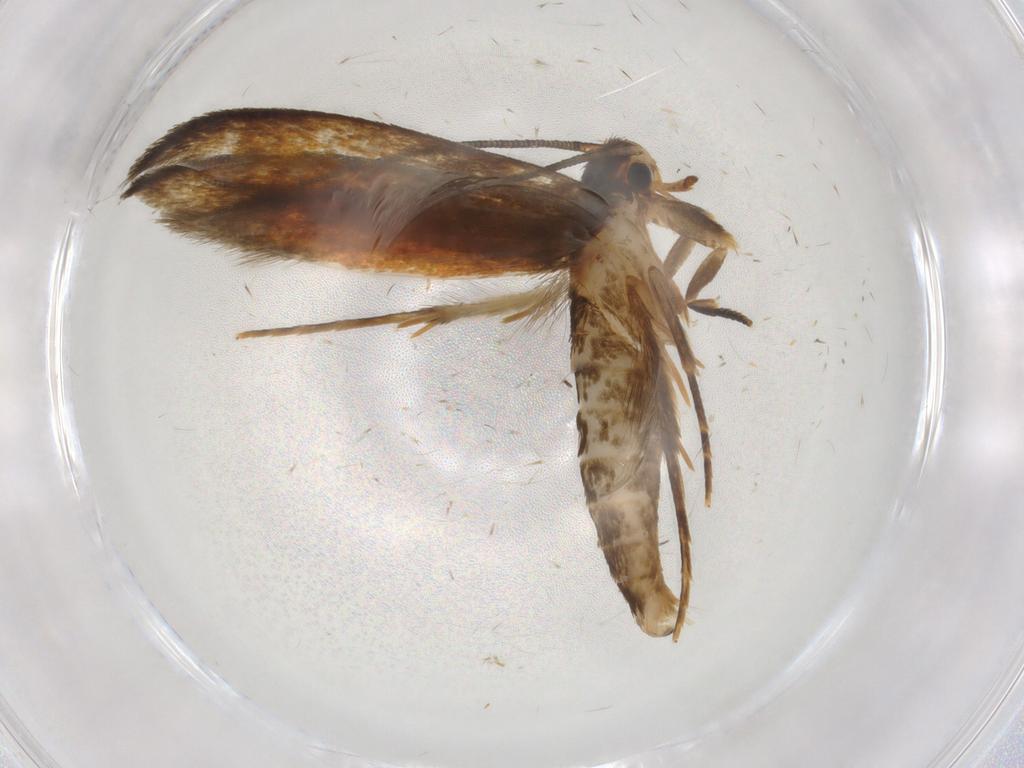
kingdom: Animalia
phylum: Arthropoda
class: Insecta
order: Lepidoptera
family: Tineidae
